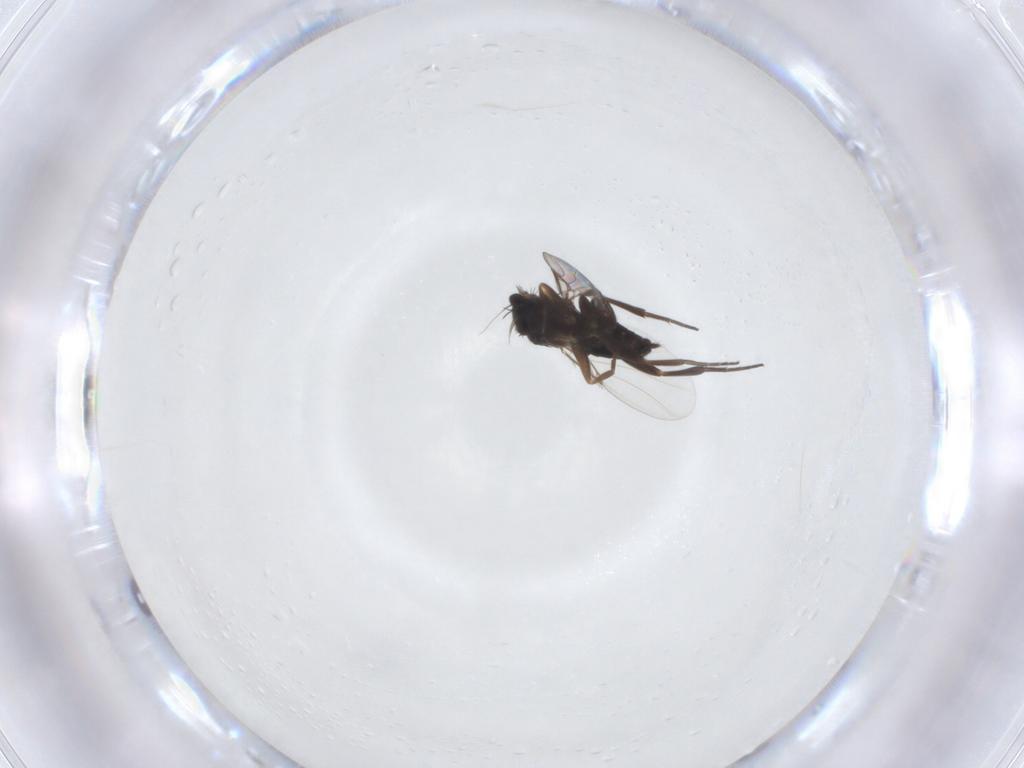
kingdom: Animalia
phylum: Arthropoda
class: Insecta
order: Diptera
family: Phoridae
